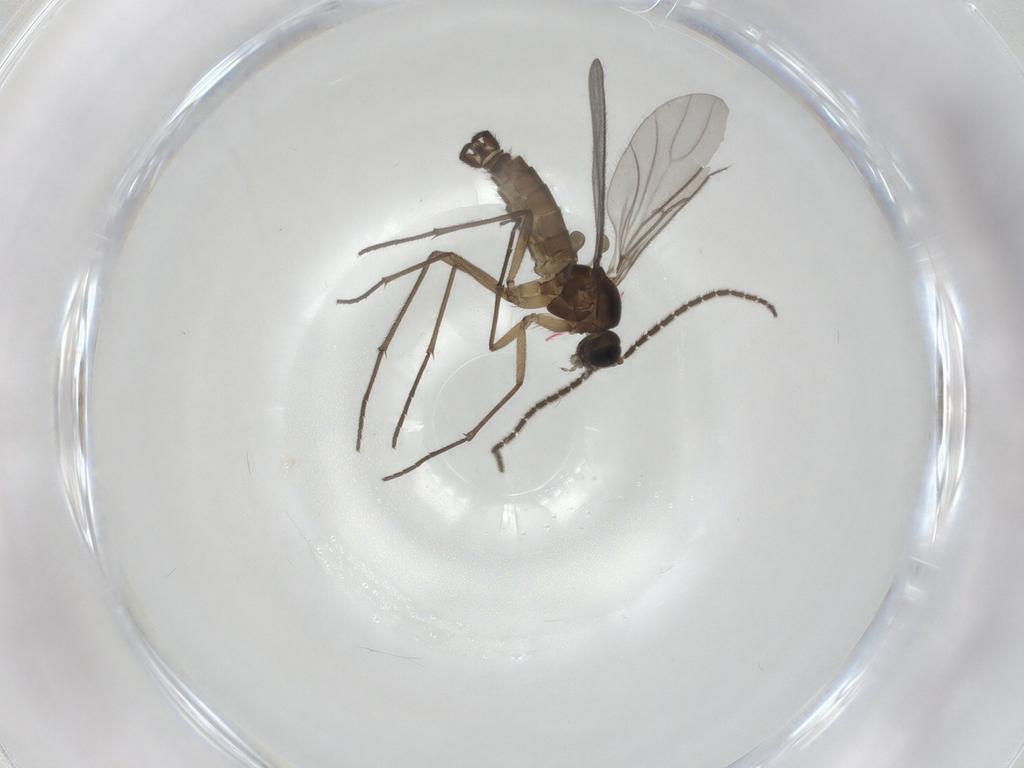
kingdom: Animalia
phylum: Arthropoda
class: Insecta
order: Diptera
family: Sciaridae
